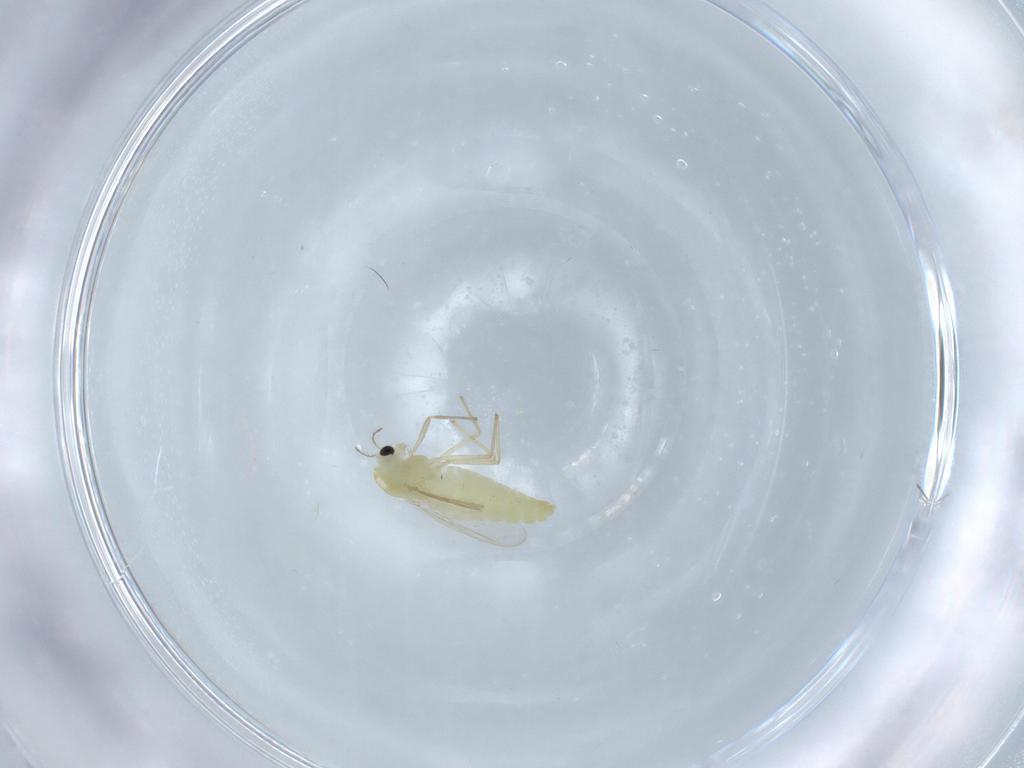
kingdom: Animalia
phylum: Arthropoda
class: Insecta
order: Diptera
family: Chironomidae
